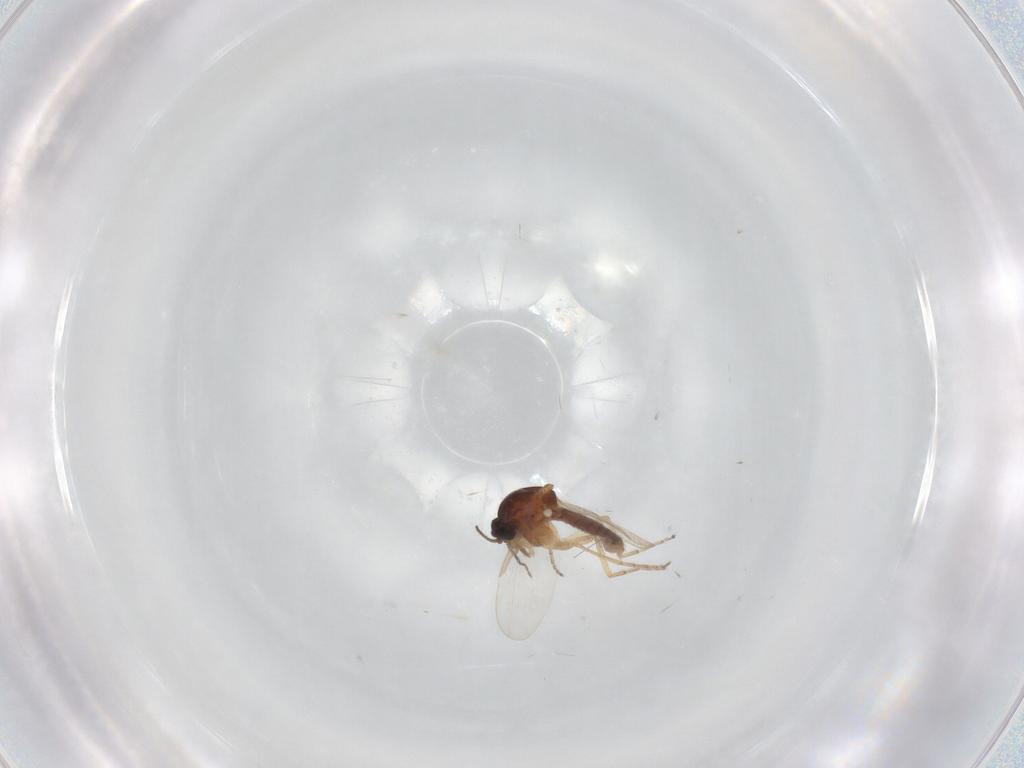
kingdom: Animalia
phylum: Arthropoda
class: Insecta
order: Diptera
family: Ceratopogonidae
